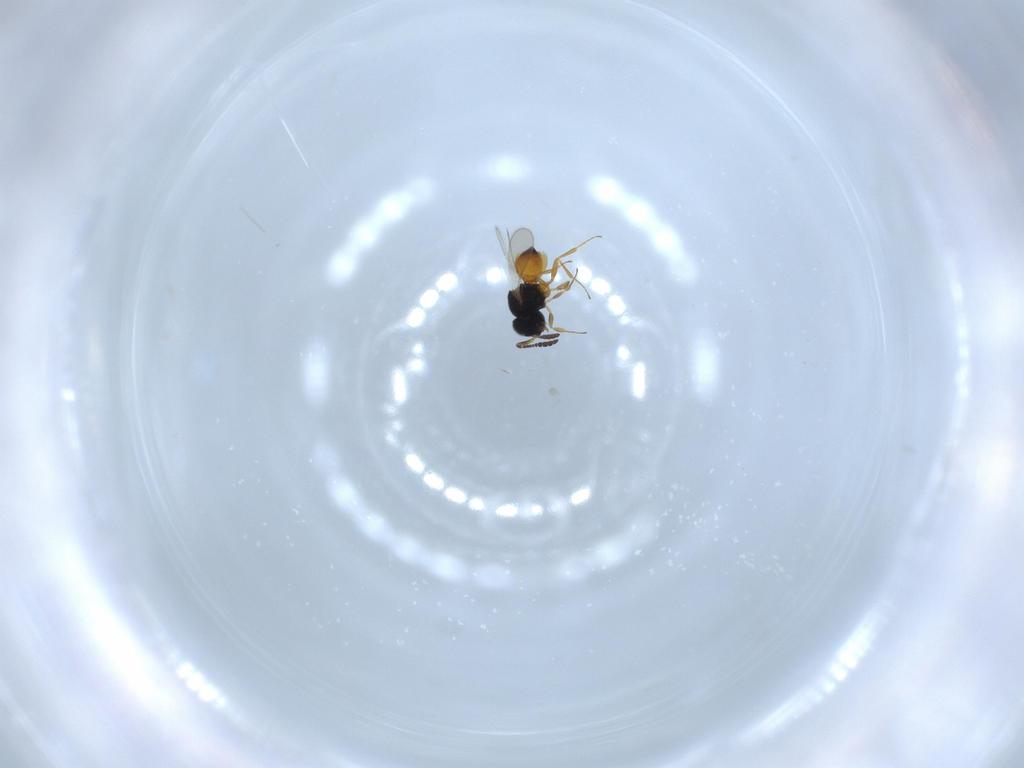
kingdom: Animalia
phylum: Arthropoda
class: Insecta
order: Hymenoptera
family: Scelionidae
